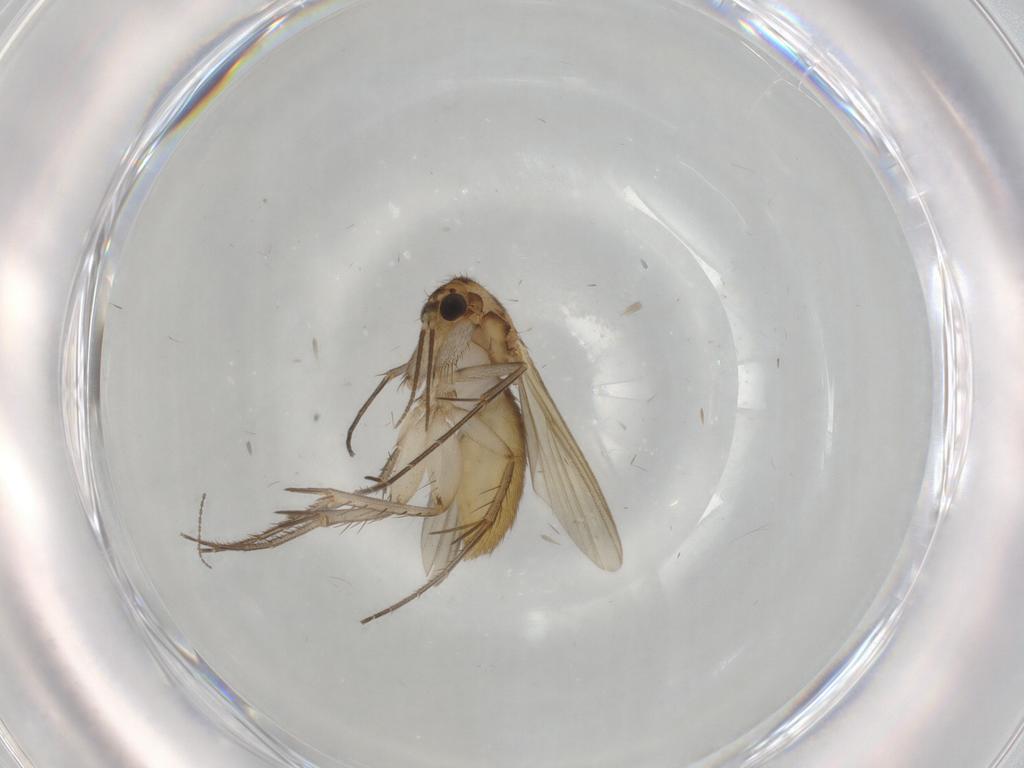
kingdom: Animalia
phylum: Arthropoda
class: Insecta
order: Diptera
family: Mycetophilidae
